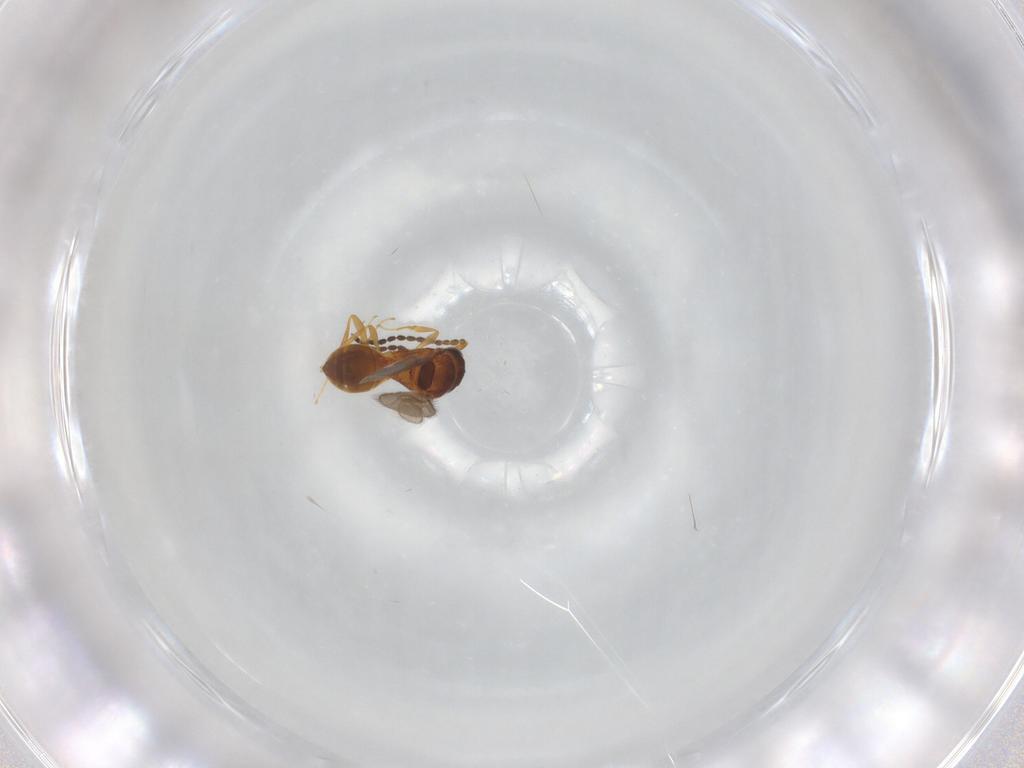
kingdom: Animalia
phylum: Arthropoda
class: Insecta
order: Hymenoptera
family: Scelionidae
